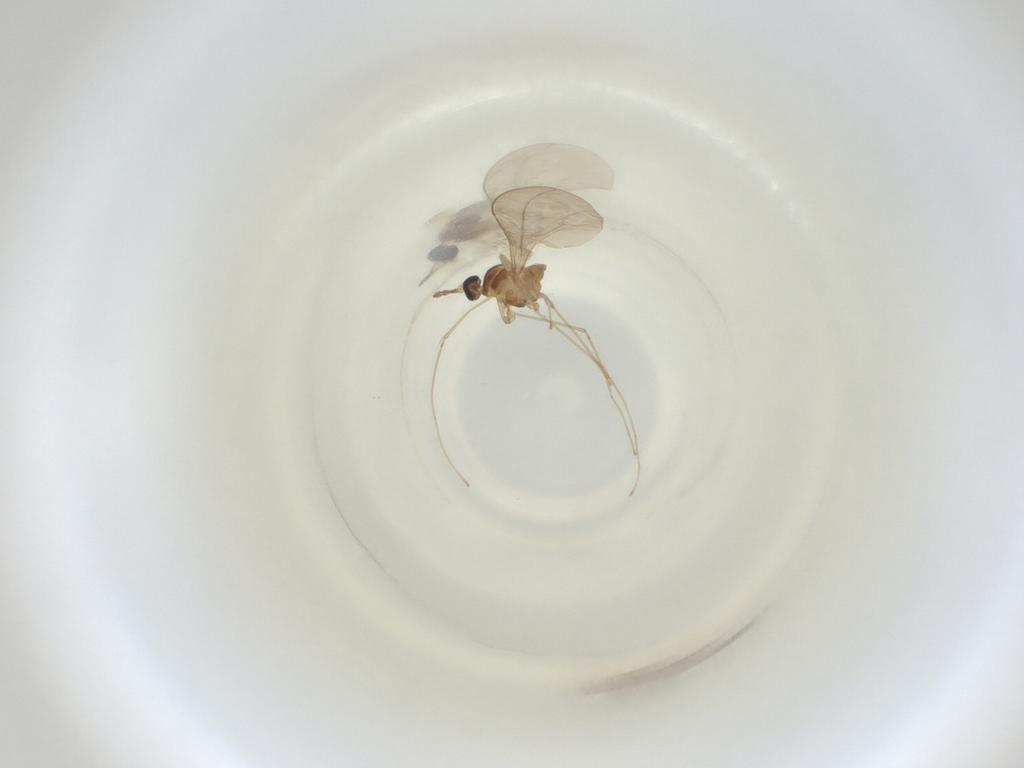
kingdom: Animalia
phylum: Arthropoda
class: Insecta
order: Diptera
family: Cecidomyiidae
